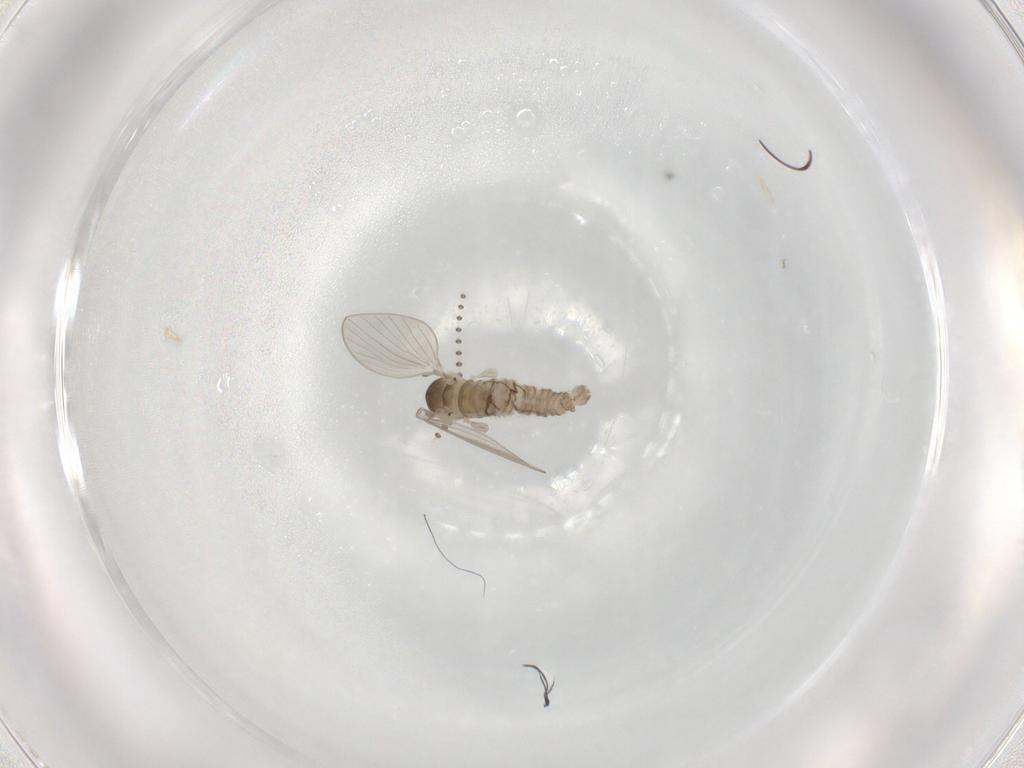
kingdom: Animalia
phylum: Arthropoda
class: Insecta
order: Diptera
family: Psychodidae
